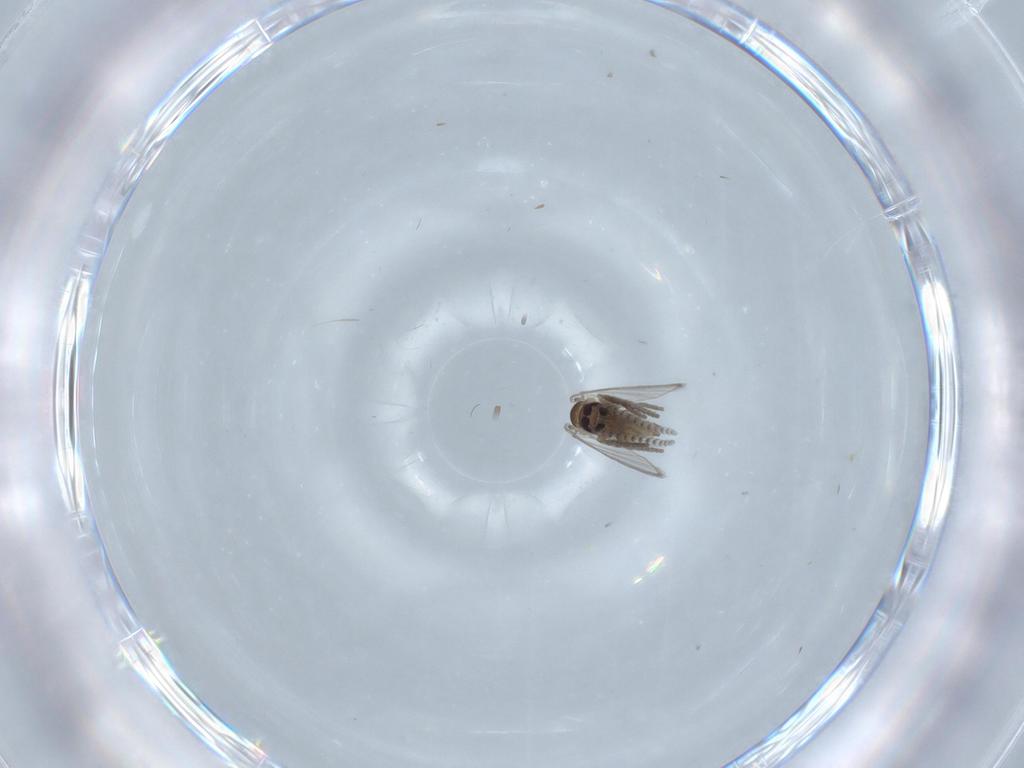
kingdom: Animalia
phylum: Arthropoda
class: Insecta
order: Diptera
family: Psychodidae
